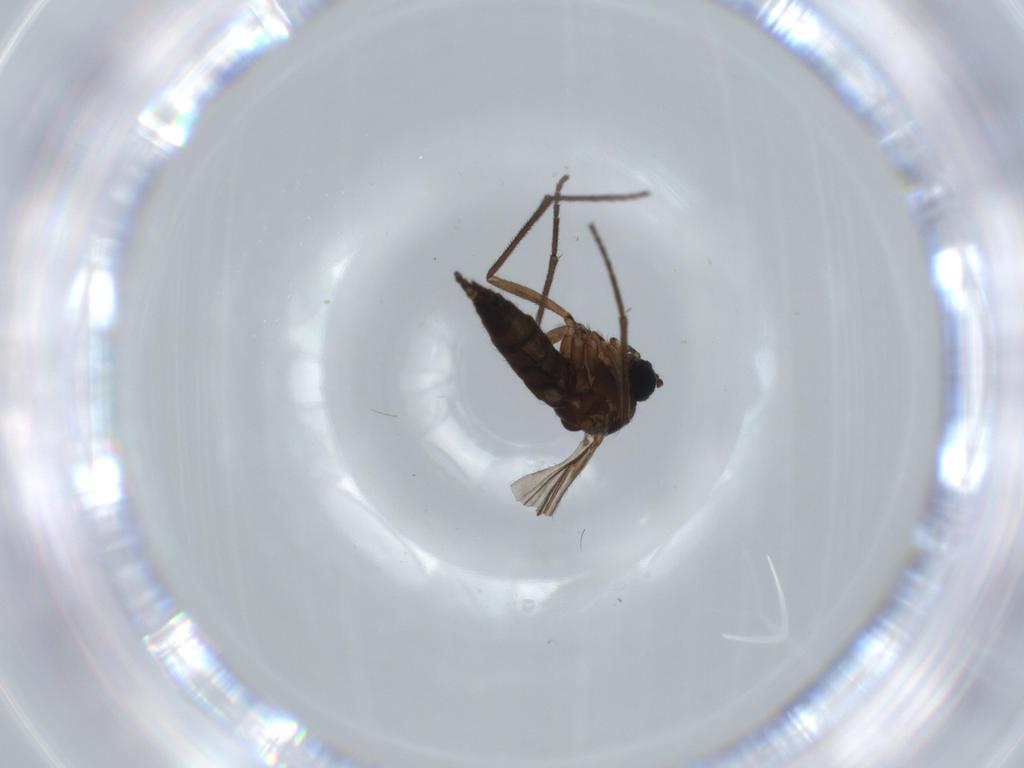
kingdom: Animalia
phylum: Arthropoda
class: Insecta
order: Diptera
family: Sciaridae
